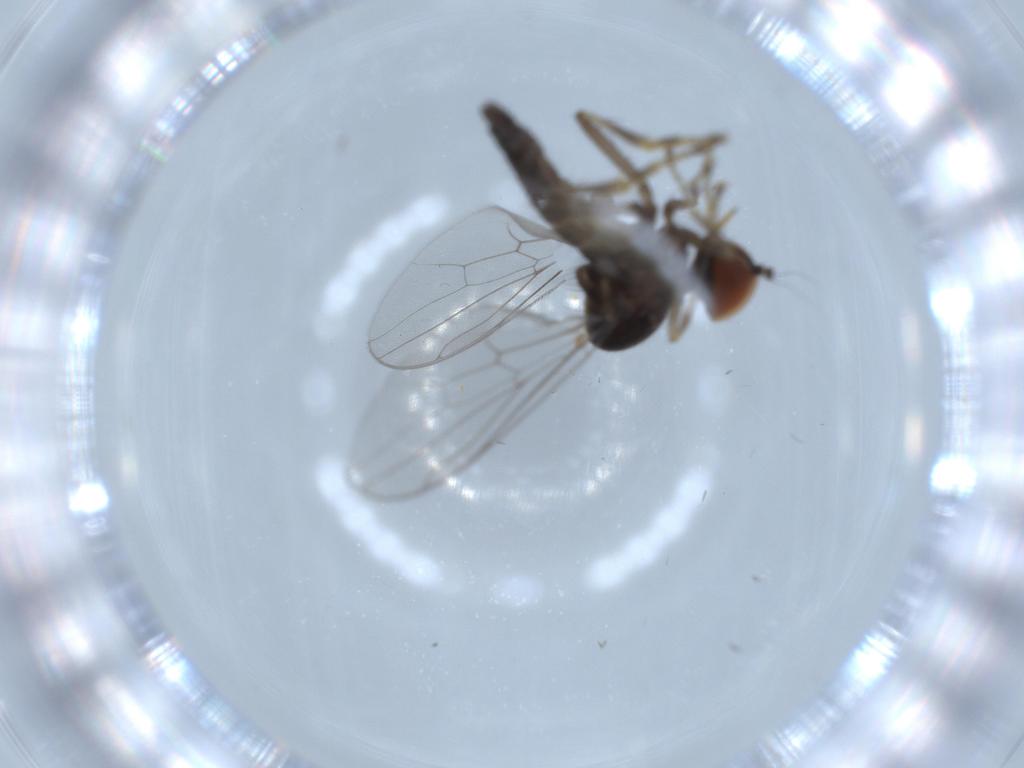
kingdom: Animalia
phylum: Arthropoda
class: Insecta
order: Diptera
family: Hybotidae
